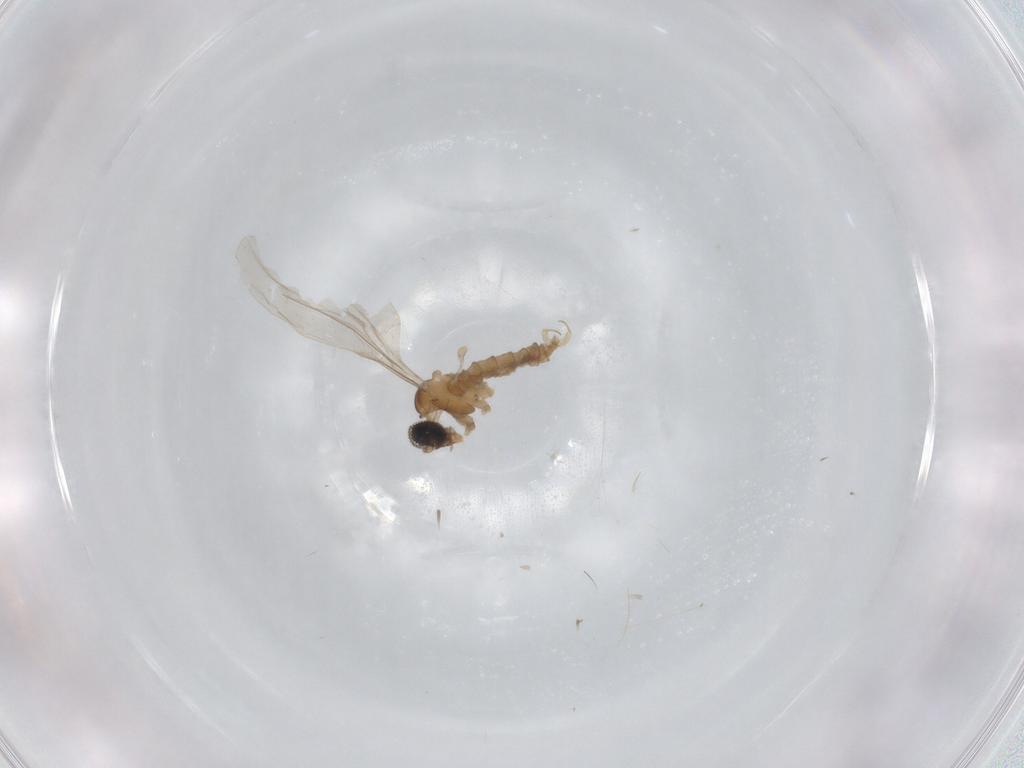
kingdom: Animalia
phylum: Arthropoda
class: Insecta
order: Diptera
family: Cecidomyiidae
